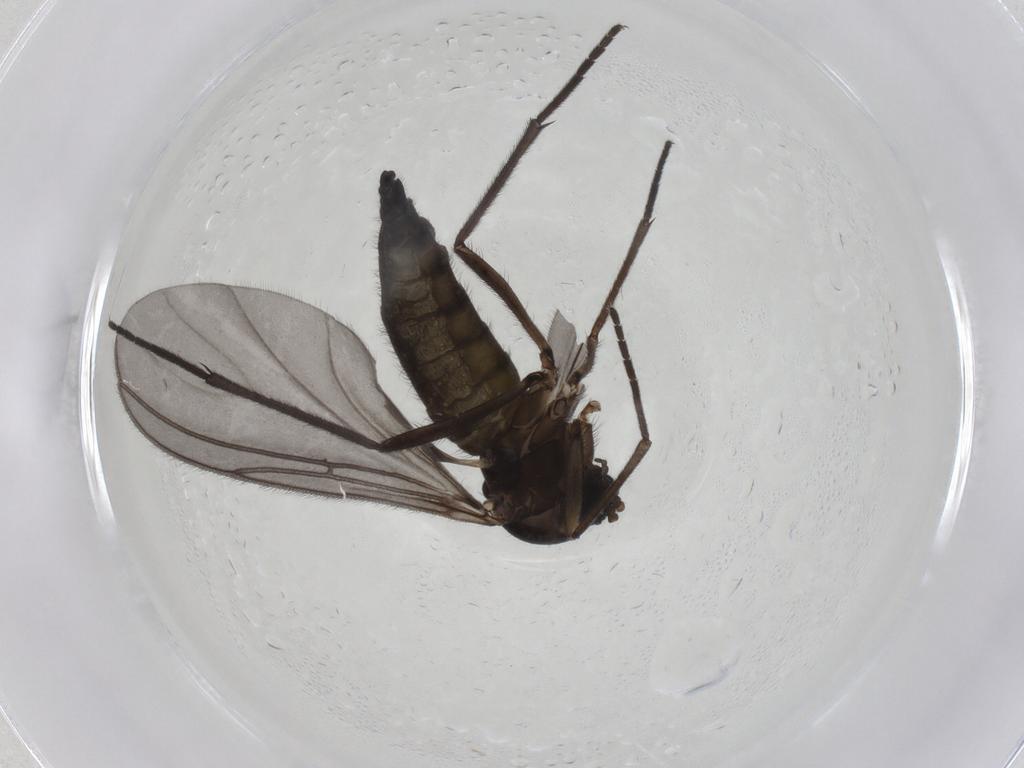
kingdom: Animalia
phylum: Arthropoda
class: Insecta
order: Diptera
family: Sciaridae
